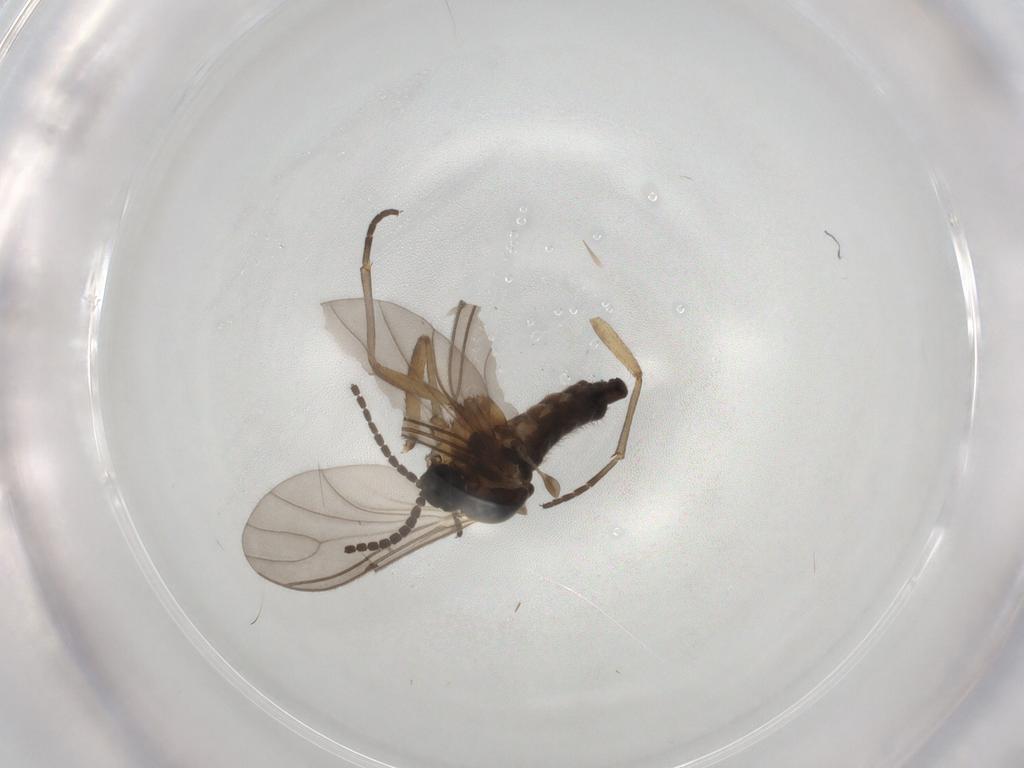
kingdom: Animalia
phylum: Arthropoda
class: Insecta
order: Diptera
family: Sciaridae
